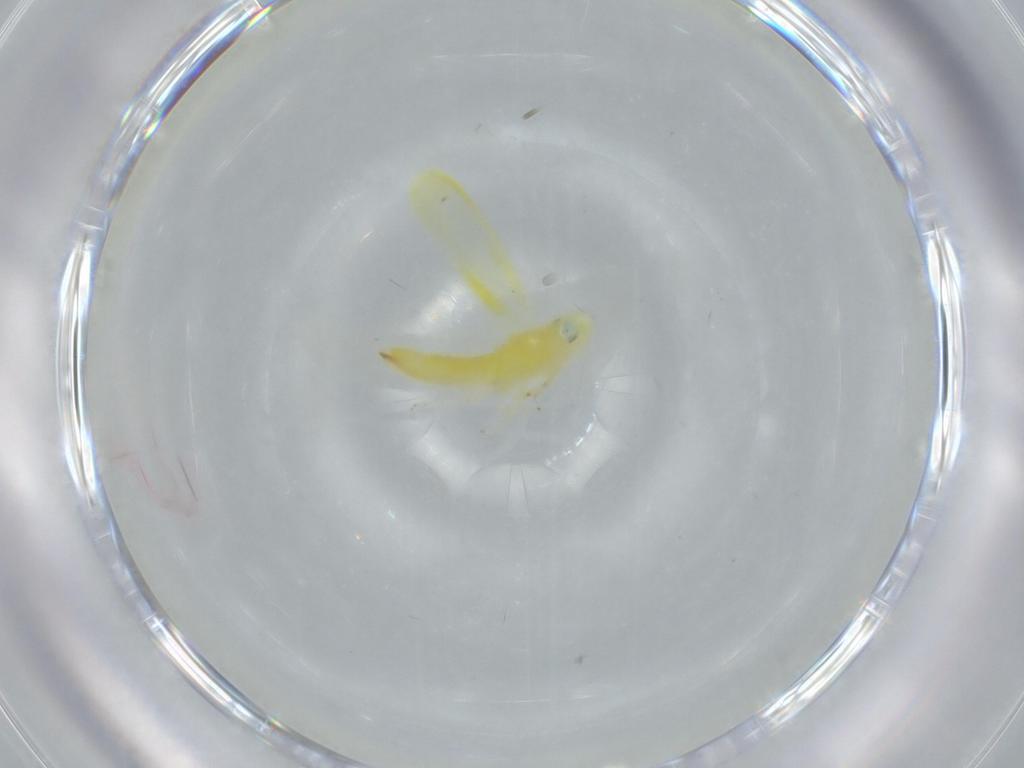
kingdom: Animalia
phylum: Arthropoda
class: Insecta
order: Hemiptera
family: Cicadellidae
